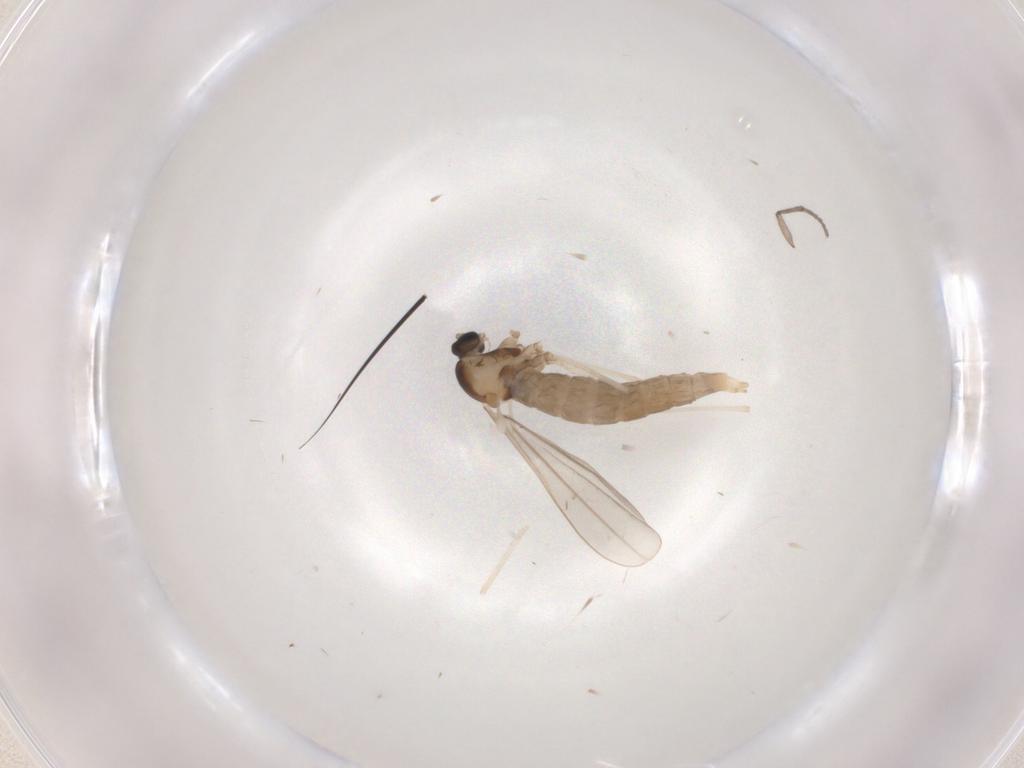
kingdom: Animalia
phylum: Arthropoda
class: Insecta
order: Diptera
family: Cecidomyiidae
